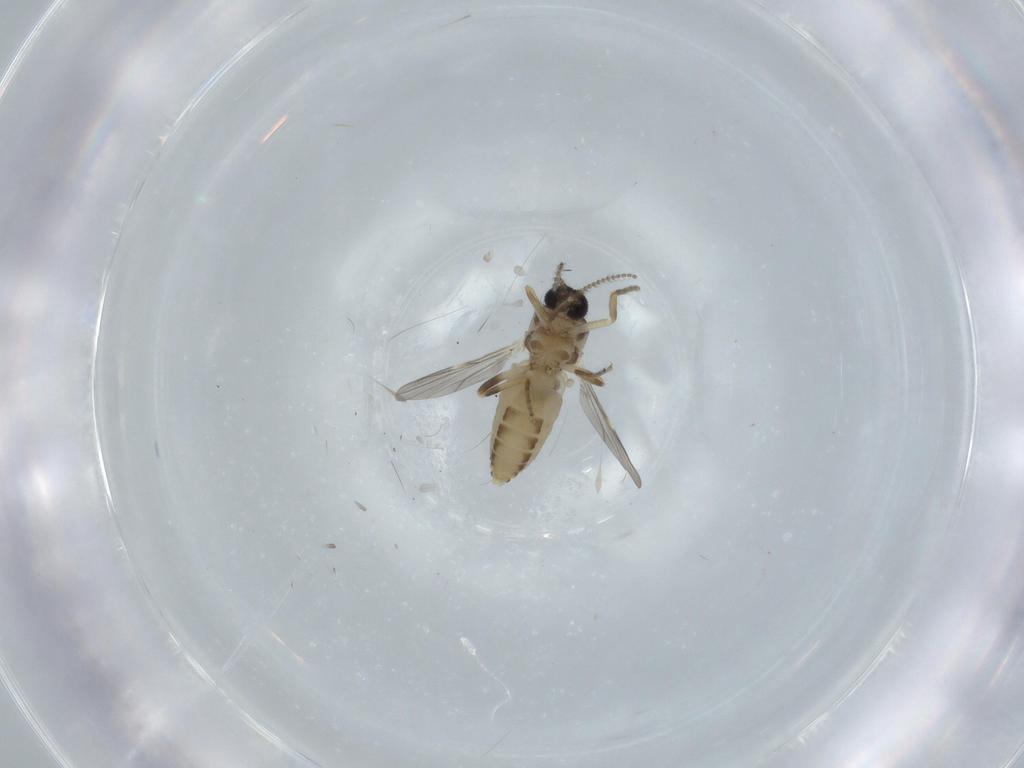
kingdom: Animalia
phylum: Arthropoda
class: Insecta
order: Diptera
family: Ceratopogonidae
